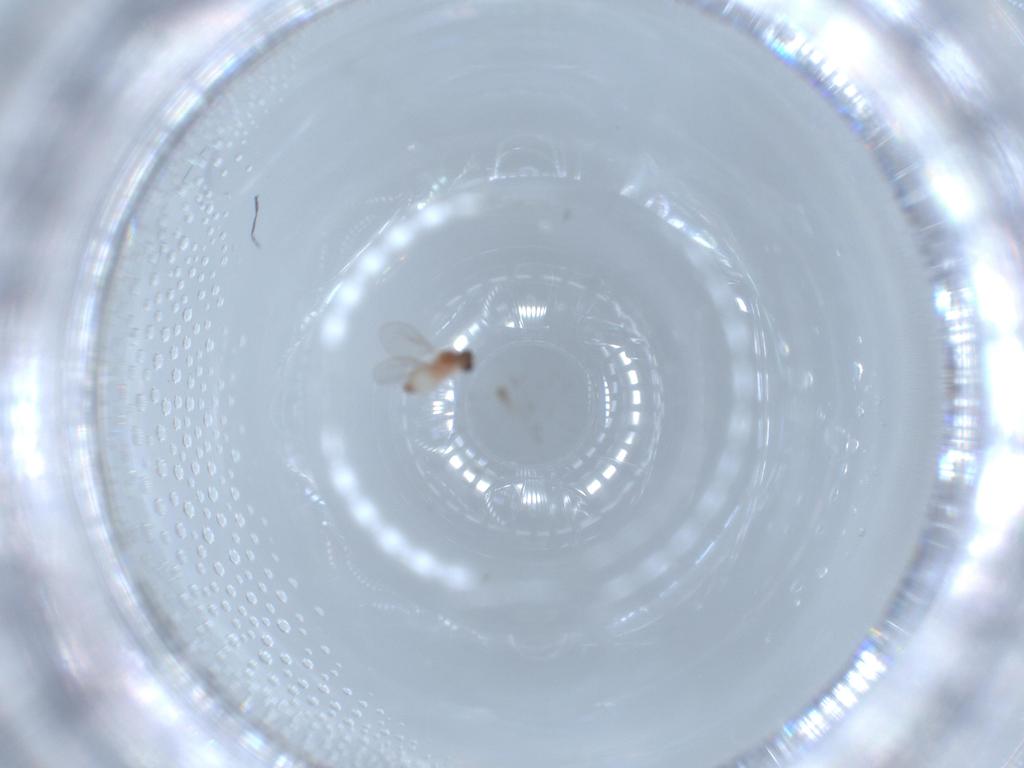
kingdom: Animalia
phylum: Arthropoda
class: Insecta
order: Diptera
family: Cecidomyiidae
